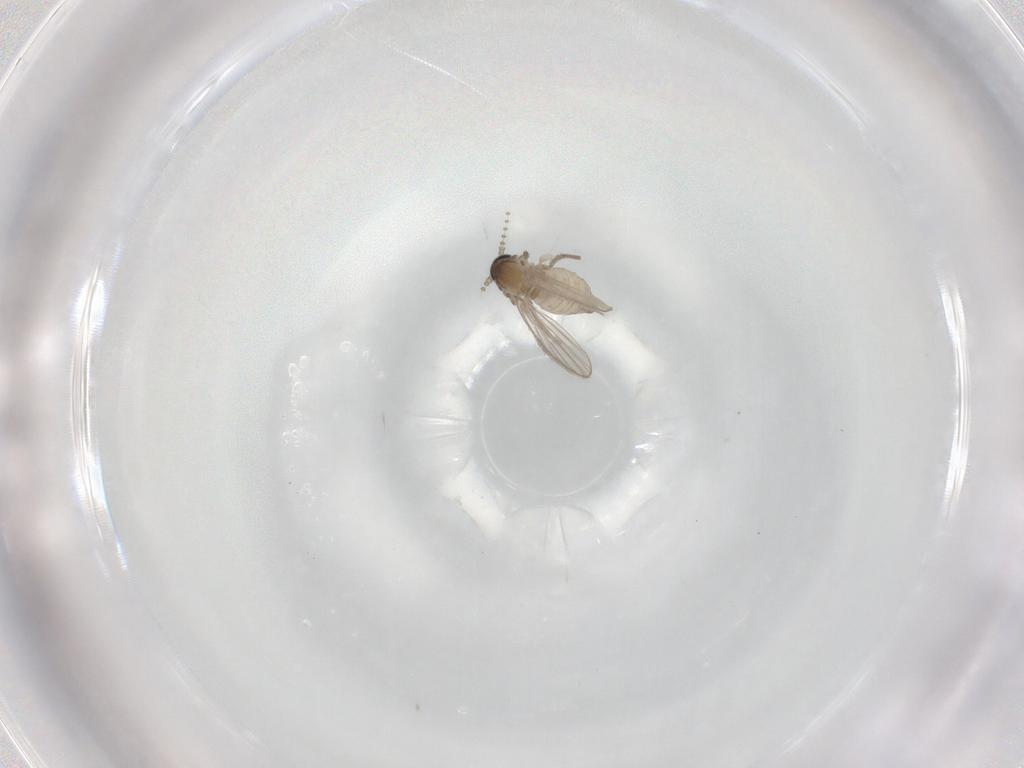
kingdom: Animalia
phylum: Arthropoda
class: Insecta
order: Diptera
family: Psychodidae
